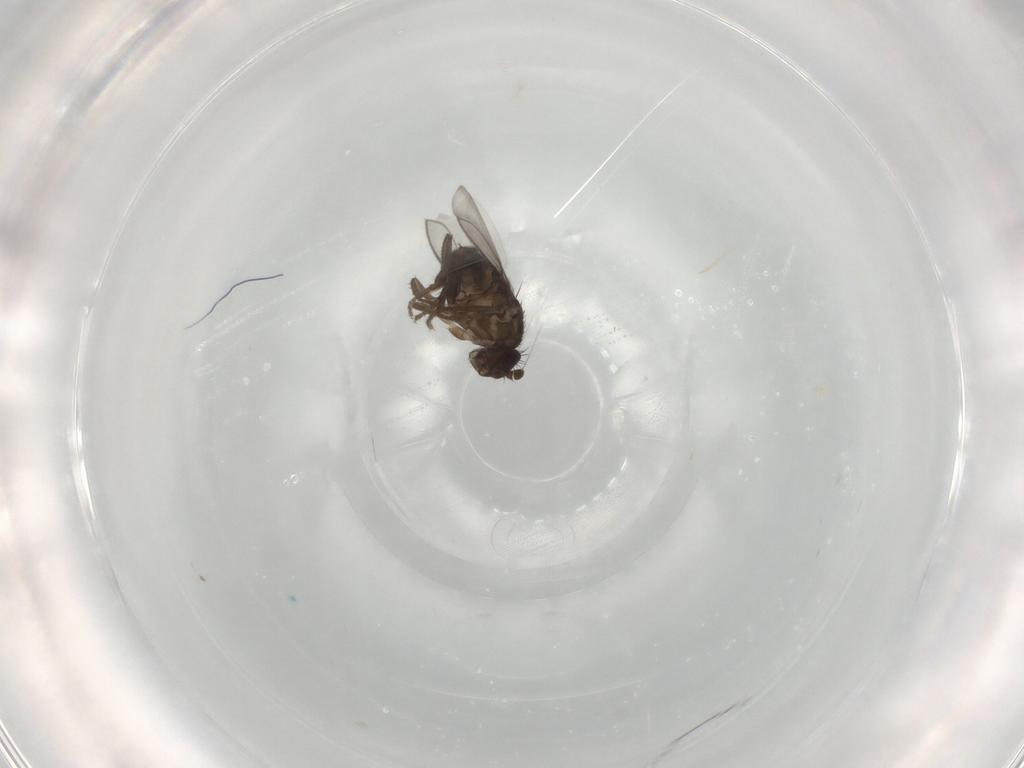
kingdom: Animalia
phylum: Arthropoda
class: Insecta
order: Diptera
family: Sphaeroceridae
